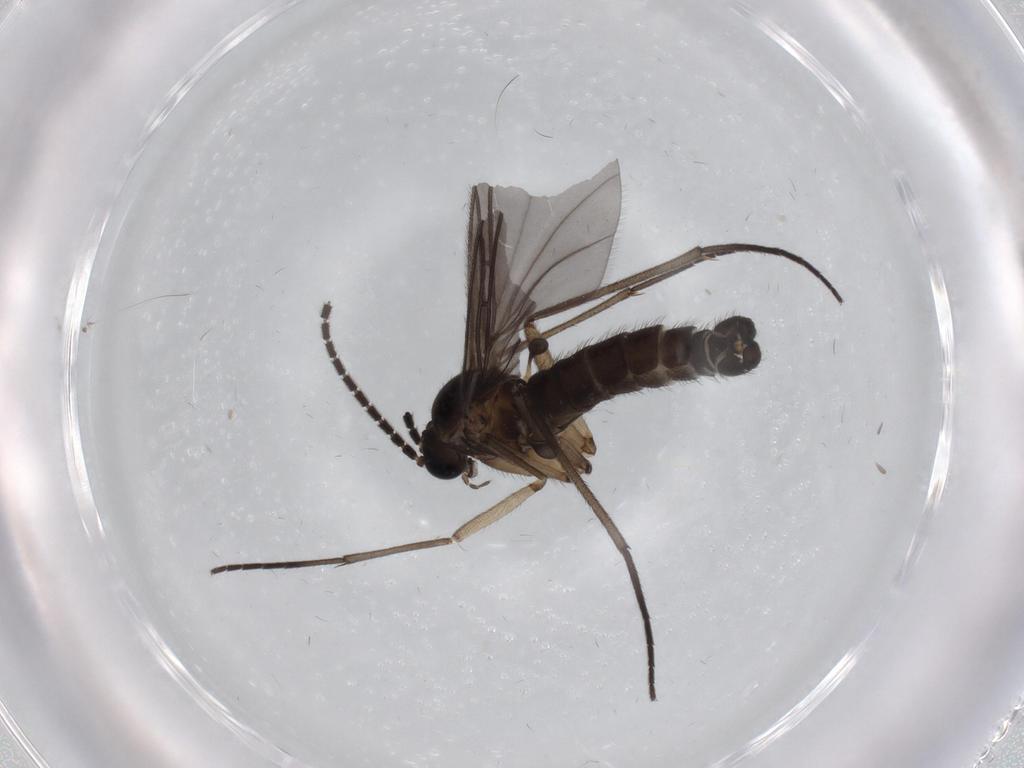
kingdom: Animalia
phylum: Arthropoda
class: Insecta
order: Diptera
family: Sciaridae
